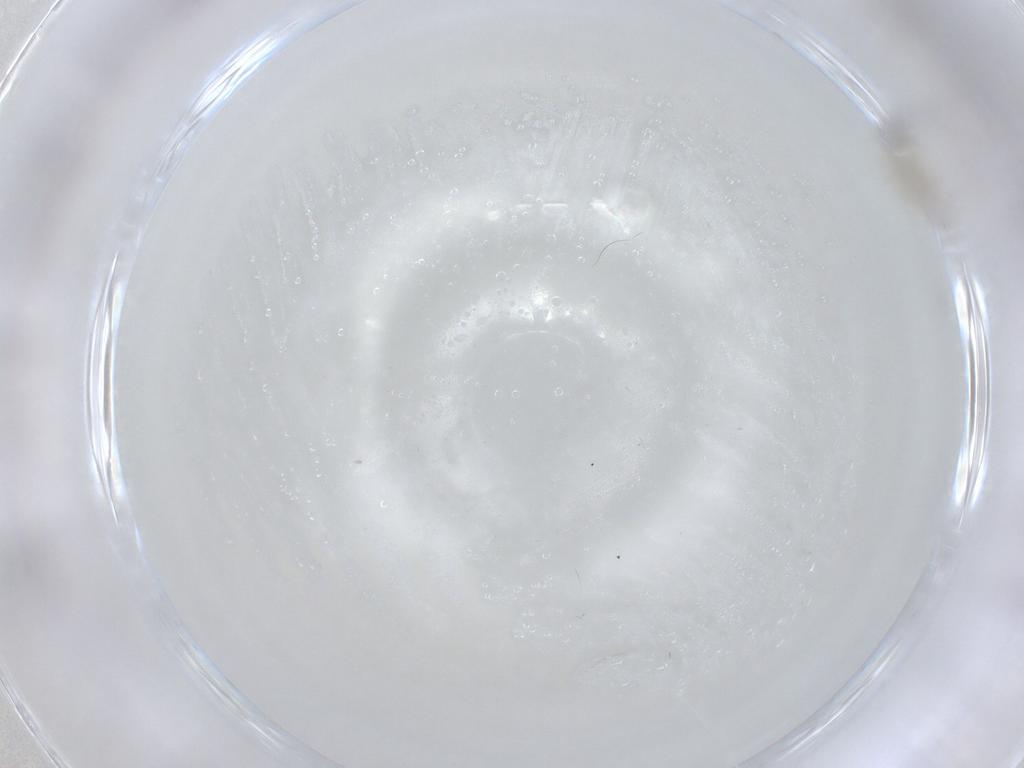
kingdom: Animalia
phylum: Arthropoda
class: Insecta
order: Diptera
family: Cecidomyiidae
